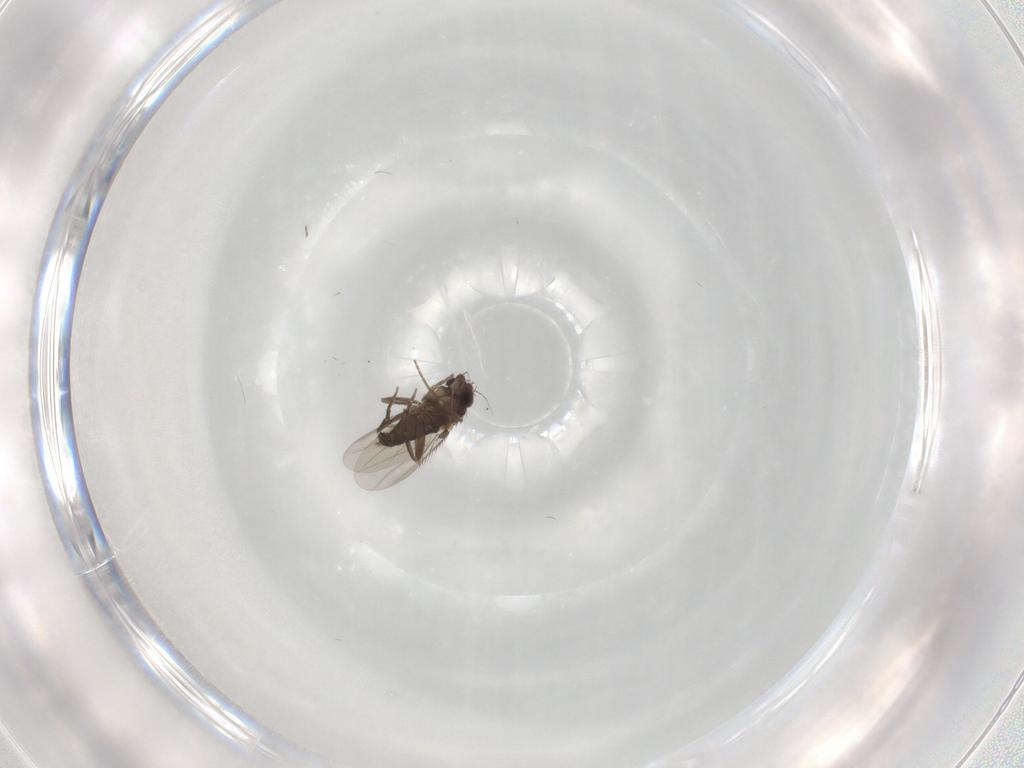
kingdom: Animalia
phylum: Arthropoda
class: Insecta
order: Diptera
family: Phoridae
